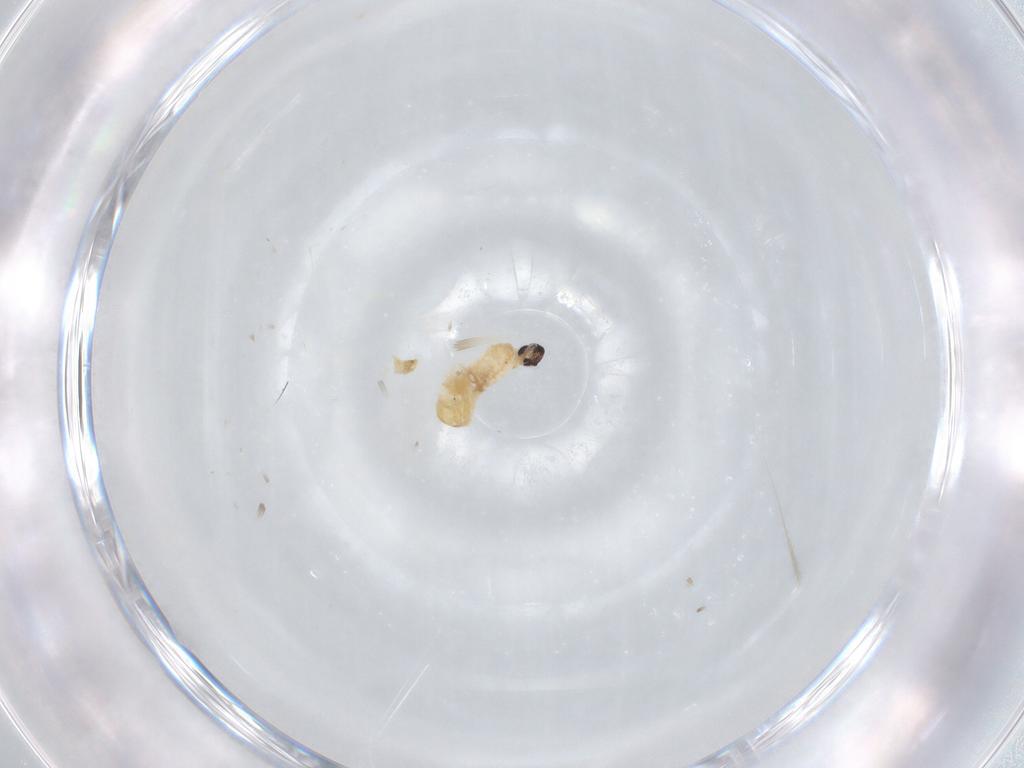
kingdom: Animalia
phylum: Arthropoda
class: Insecta
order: Diptera
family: Cecidomyiidae
